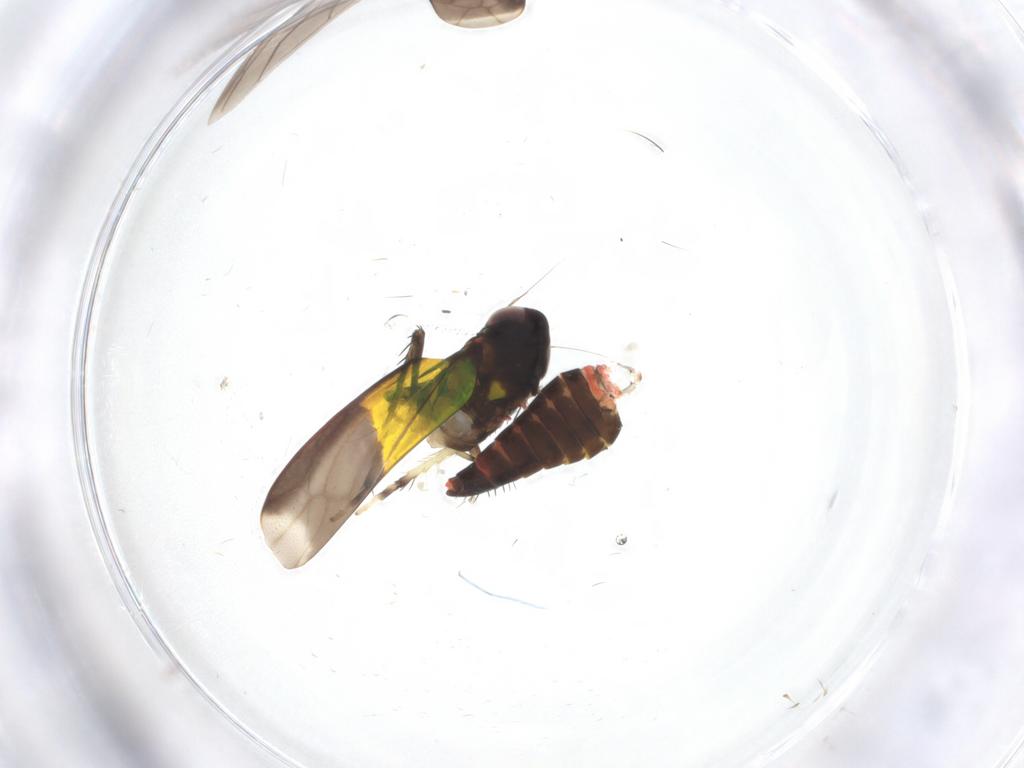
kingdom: Animalia
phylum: Arthropoda
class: Insecta
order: Hemiptera
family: Cicadellidae
